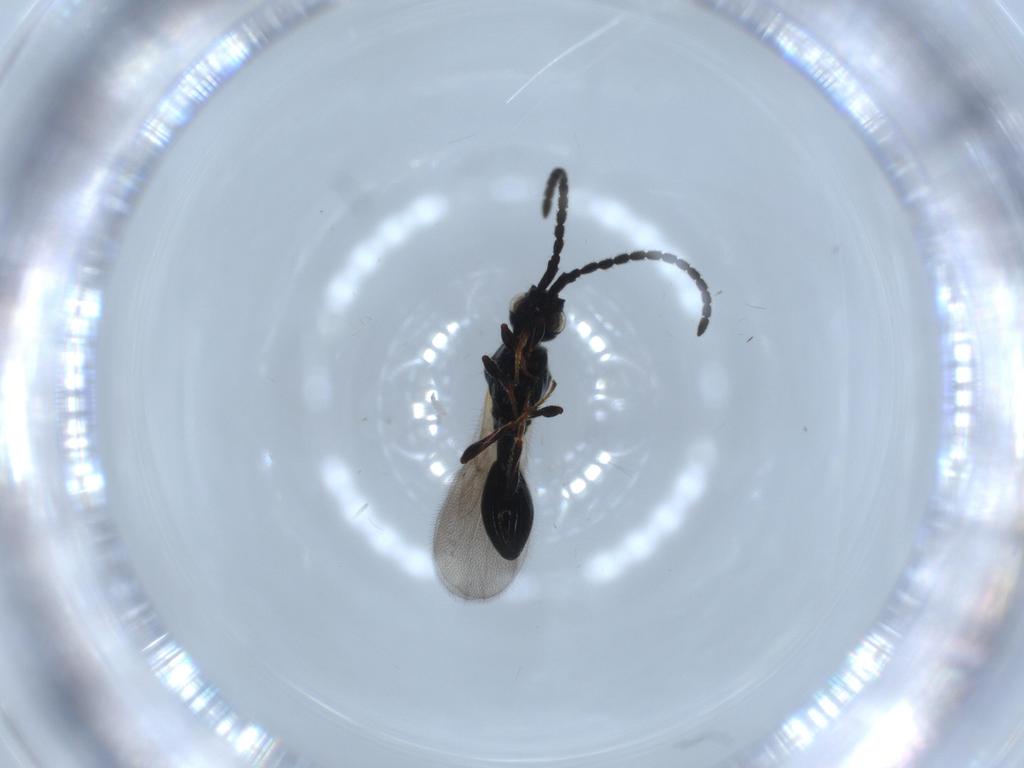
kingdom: Animalia
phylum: Arthropoda
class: Insecta
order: Hymenoptera
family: Diapriidae
